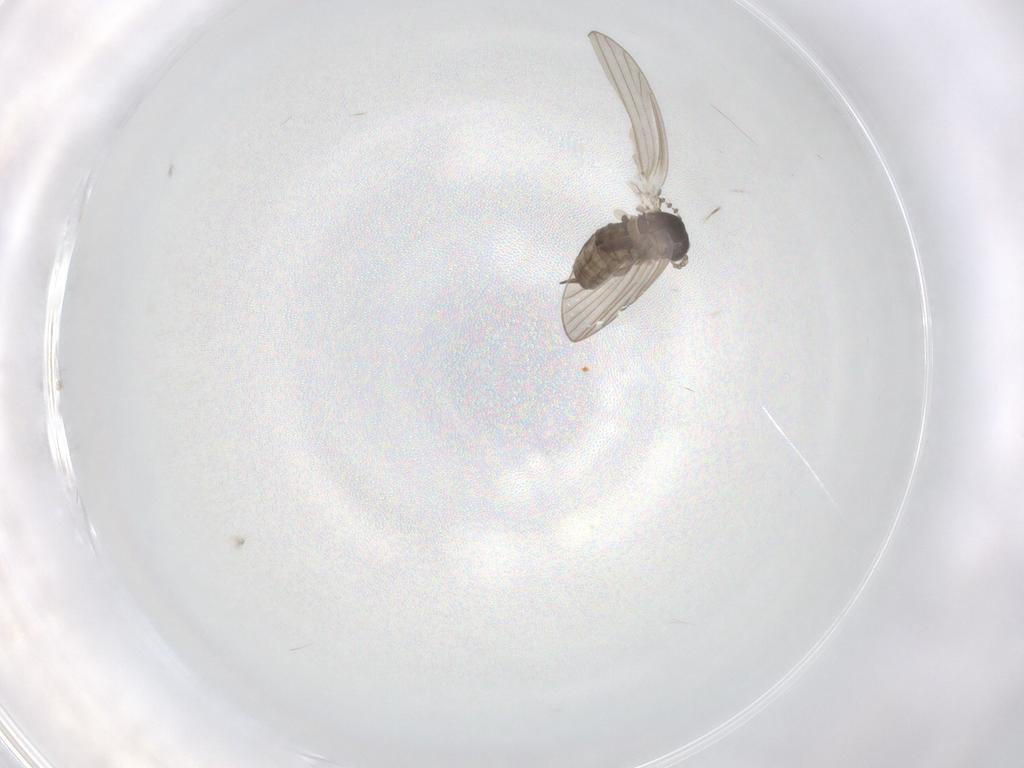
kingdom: Animalia
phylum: Arthropoda
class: Insecta
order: Diptera
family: Psychodidae
